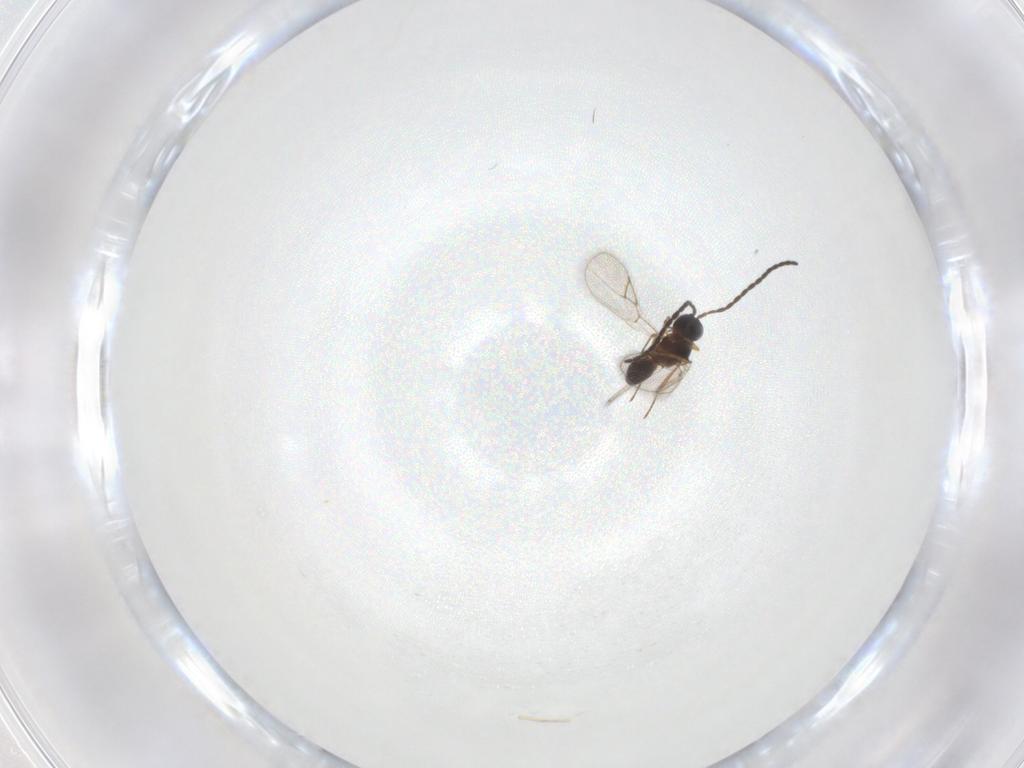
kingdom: Animalia
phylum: Arthropoda
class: Insecta
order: Hymenoptera
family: Figitidae
